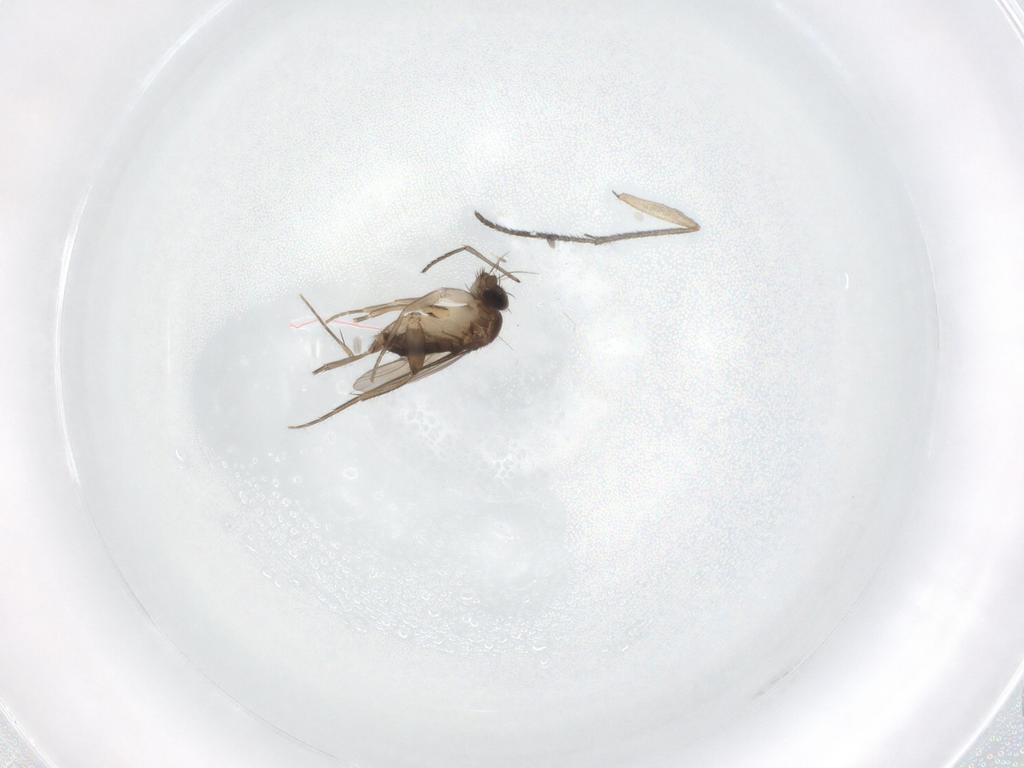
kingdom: Animalia
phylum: Arthropoda
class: Insecta
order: Diptera
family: Phoridae
